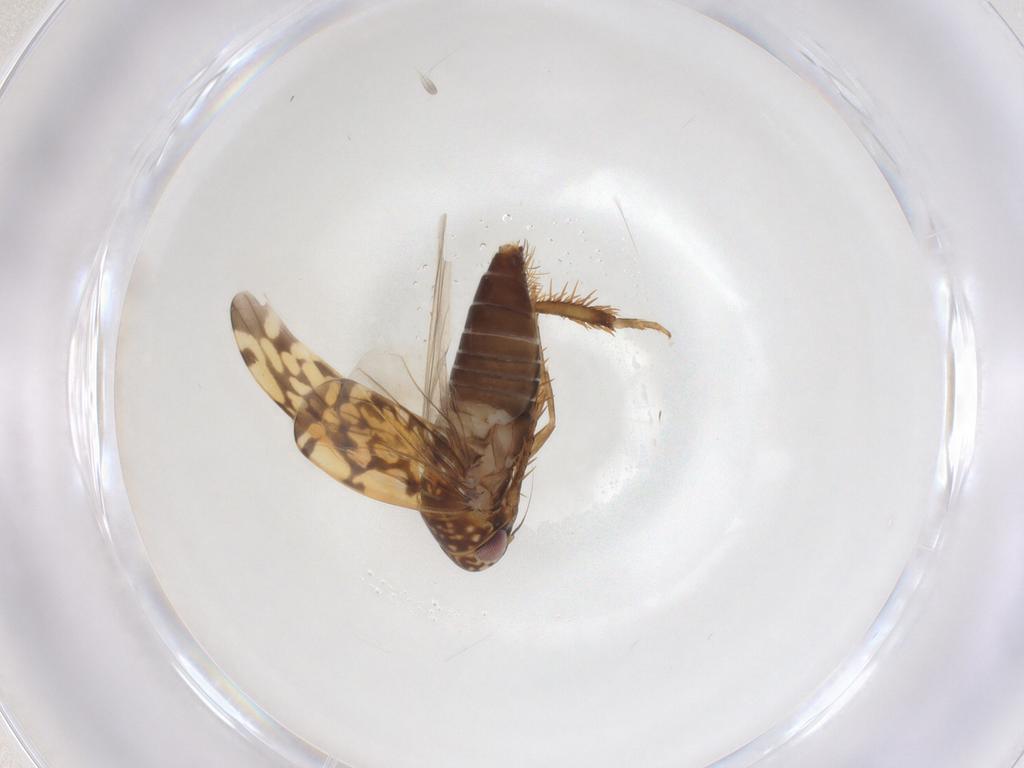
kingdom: Animalia
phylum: Arthropoda
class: Insecta
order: Hemiptera
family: Cicadellidae
